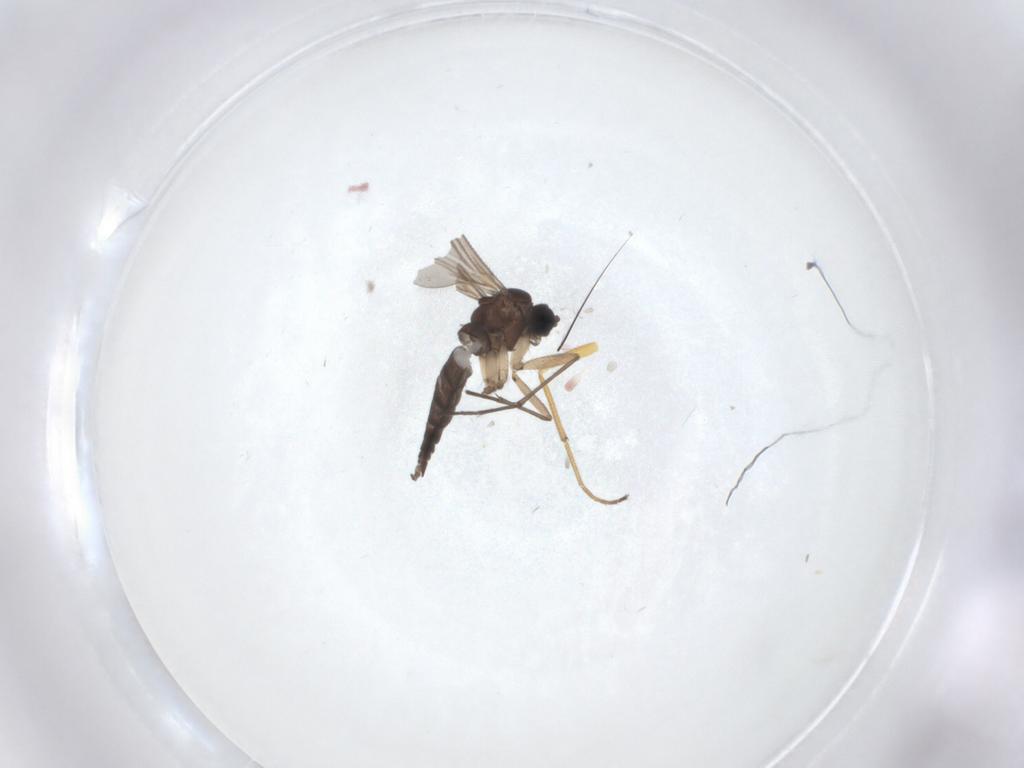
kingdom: Animalia
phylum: Arthropoda
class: Insecta
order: Diptera
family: Sciaridae
